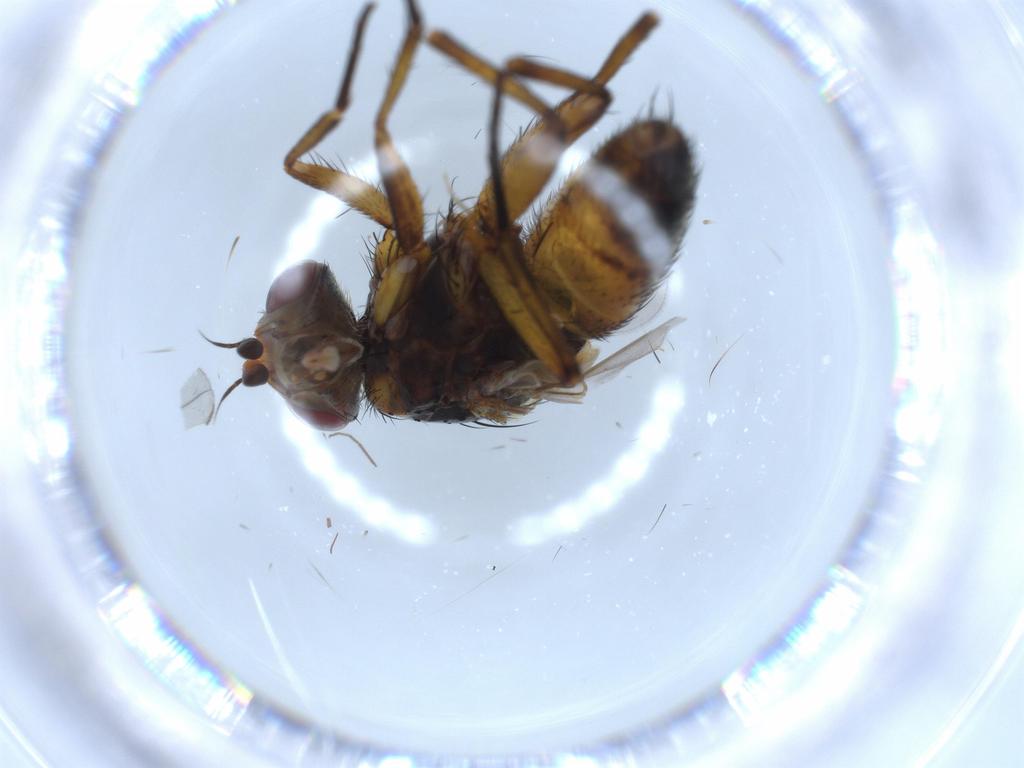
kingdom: Animalia
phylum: Arthropoda
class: Insecta
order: Diptera
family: Tachinidae
